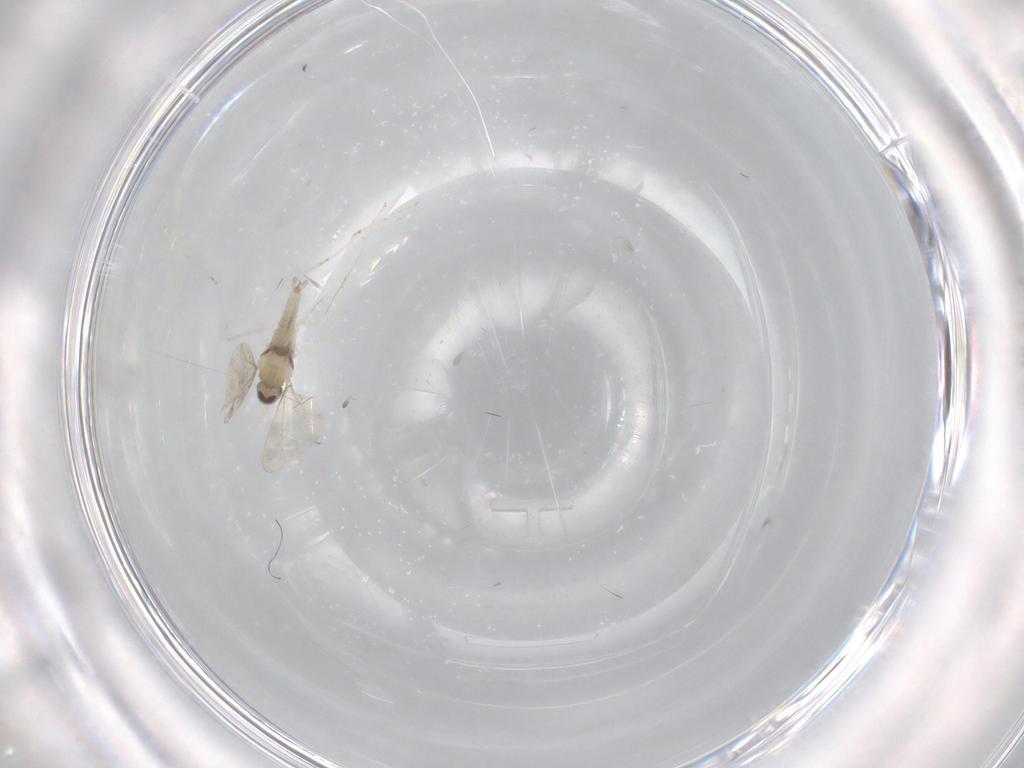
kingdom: Animalia
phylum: Arthropoda
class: Insecta
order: Diptera
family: Cecidomyiidae
